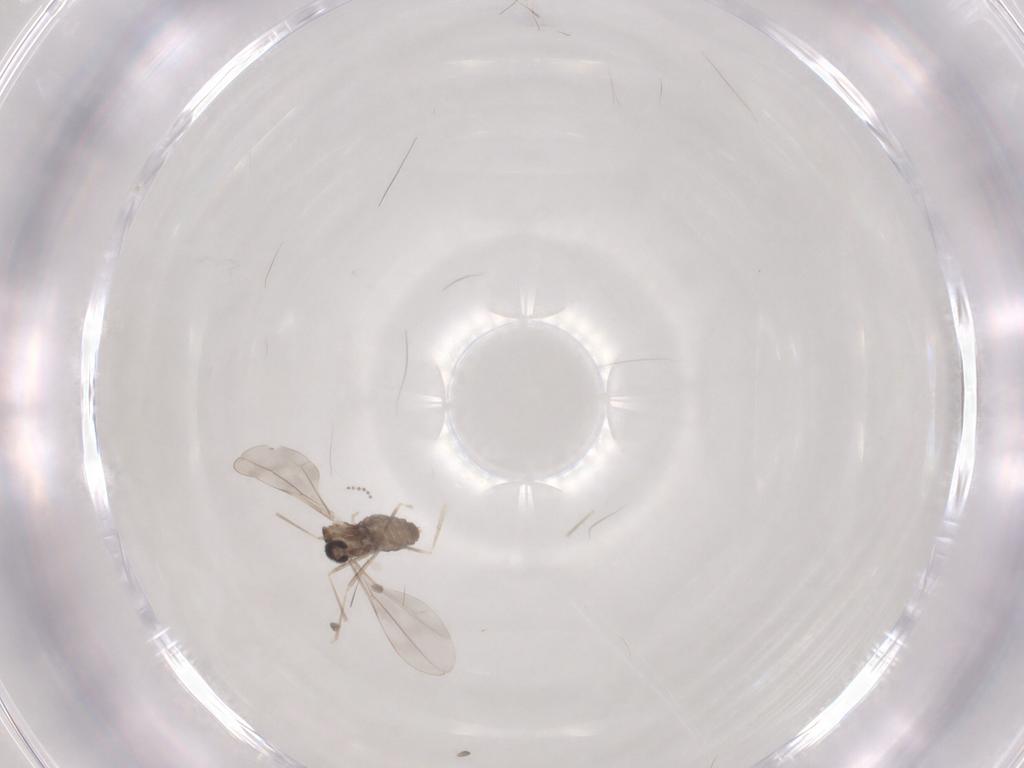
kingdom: Animalia
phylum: Arthropoda
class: Insecta
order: Diptera
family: Cecidomyiidae
